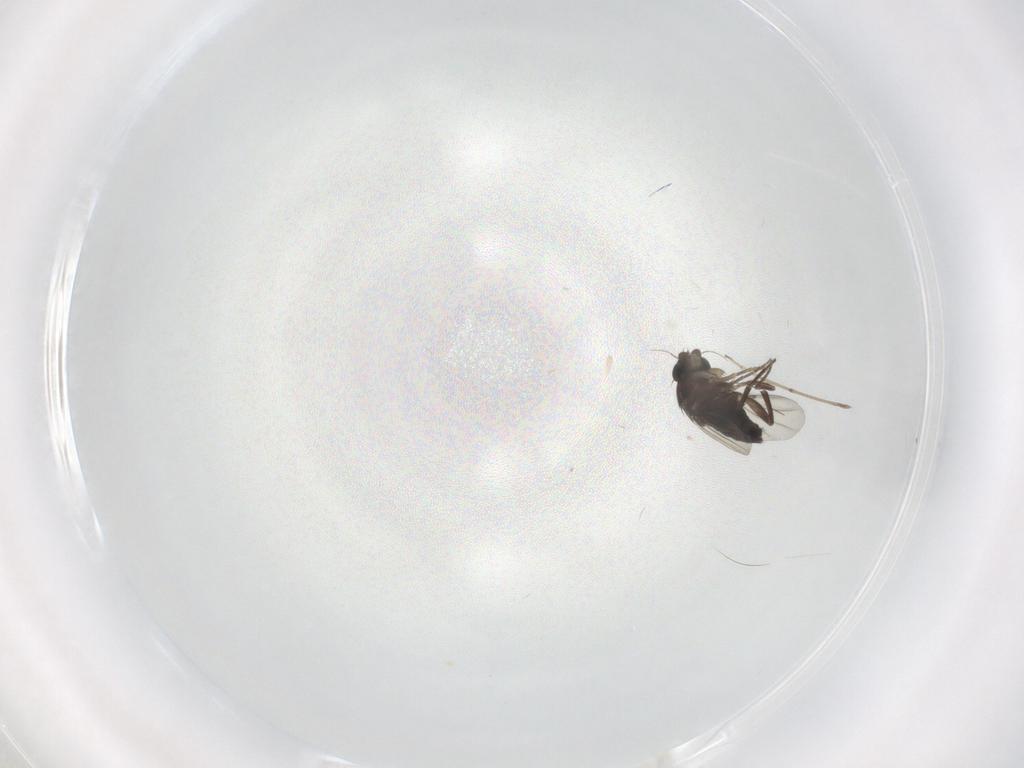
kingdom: Animalia
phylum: Arthropoda
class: Insecta
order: Diptera
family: Phoridae
